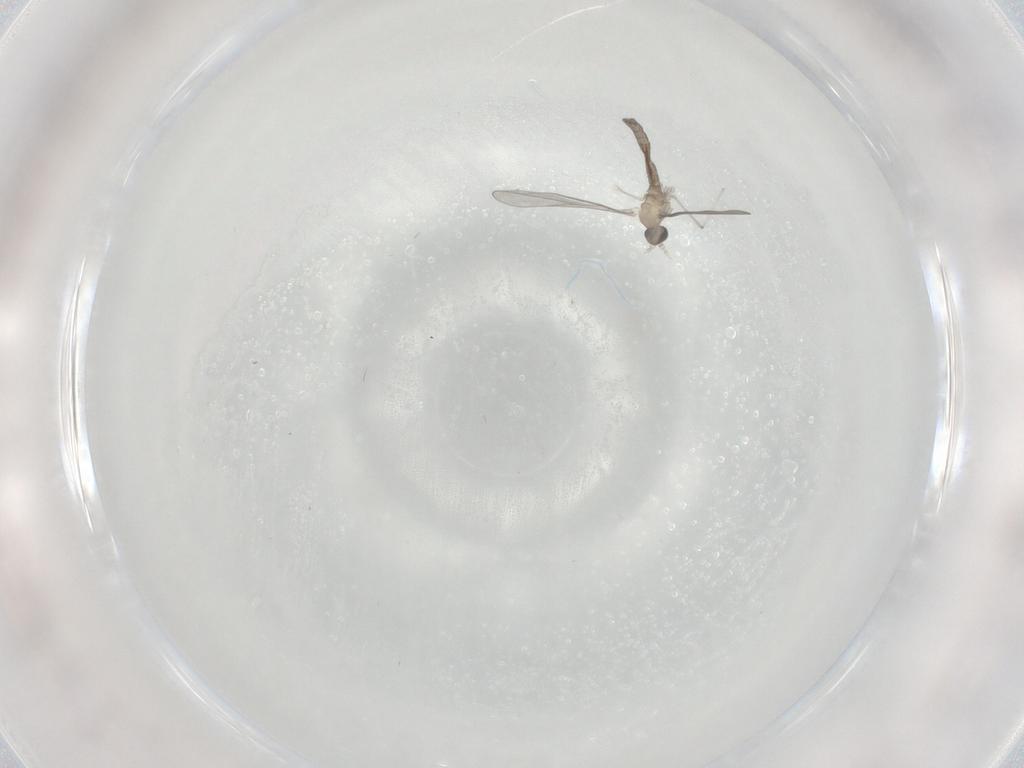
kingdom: Animalia
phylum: Arthropoda
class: Insecta
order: Diptera
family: Cecidomyiidae
